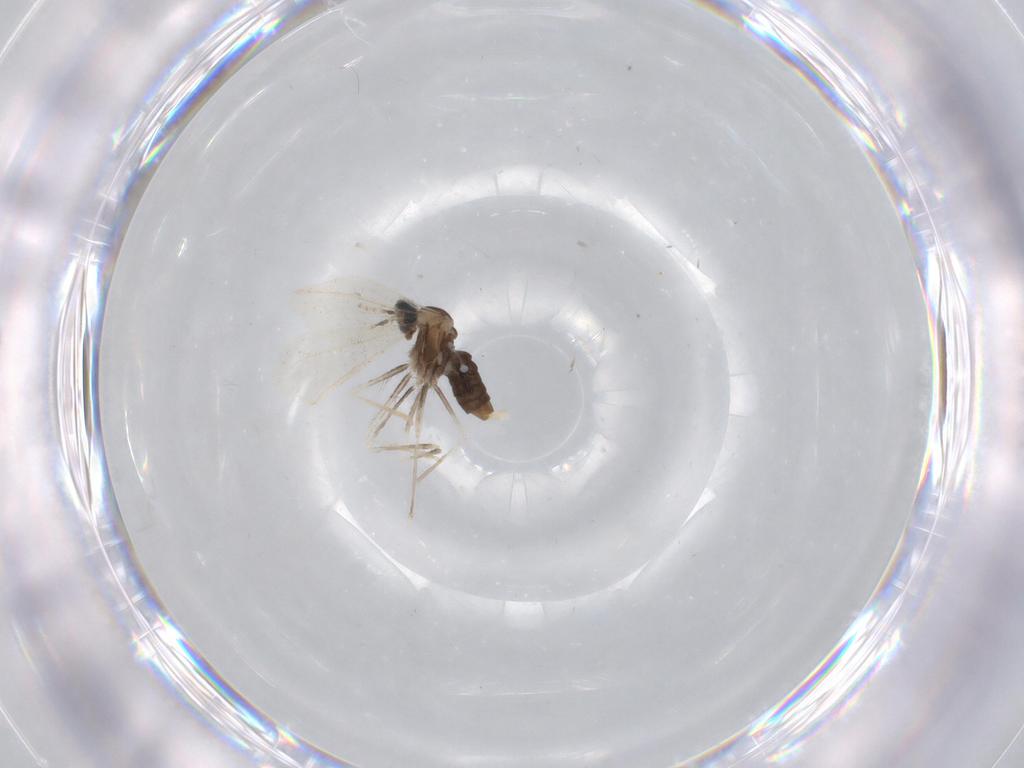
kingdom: Animalia
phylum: Arthropoda
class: Insecta
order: Diptera
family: Cecidomyiidae
